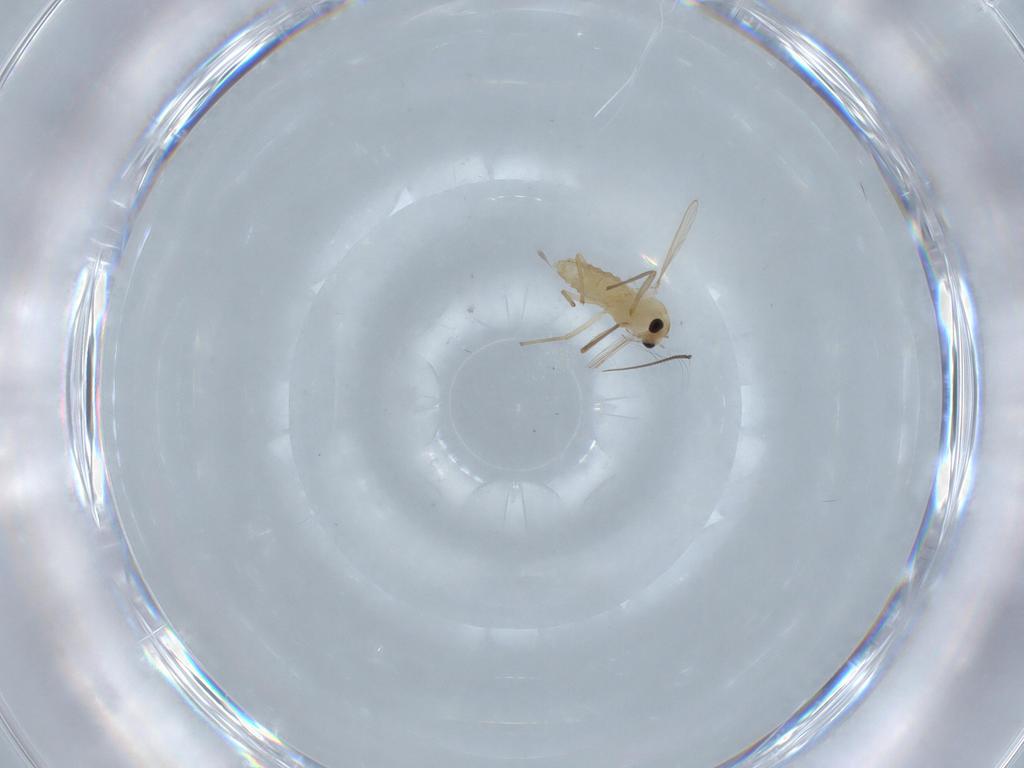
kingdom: Animalia
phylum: Arthropoda
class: Insecta
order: Diptera
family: Chironomidae
